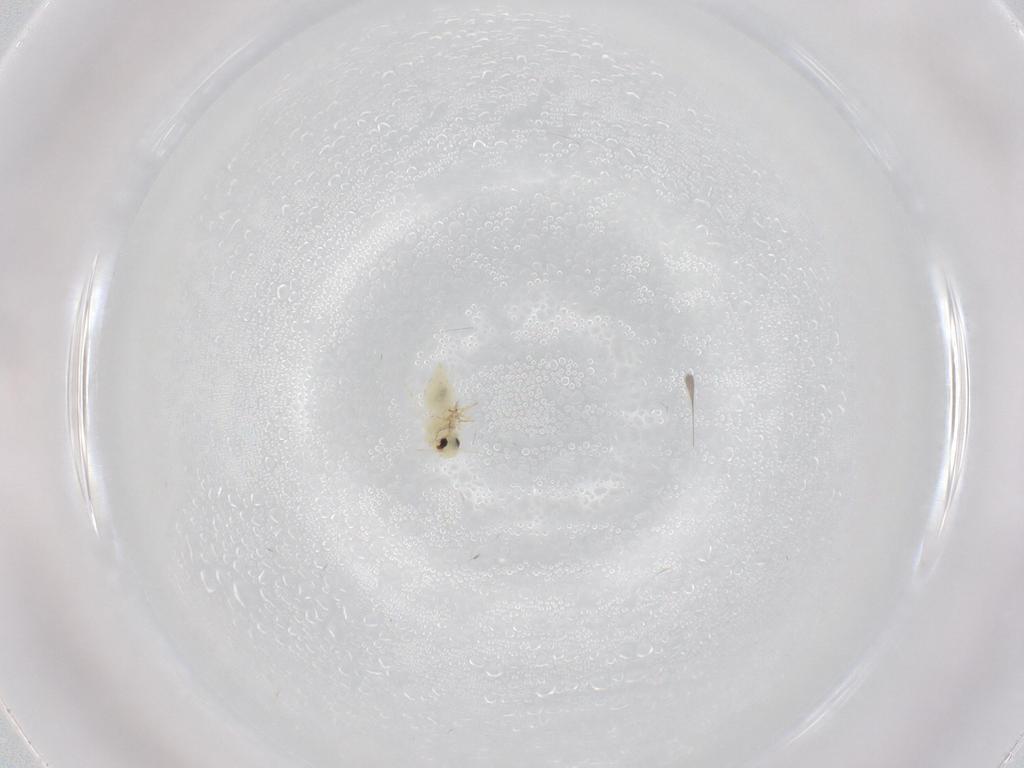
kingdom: Animalia
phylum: Arthropoda
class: Insecta
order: Hemiptera
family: Aleyrodidae
